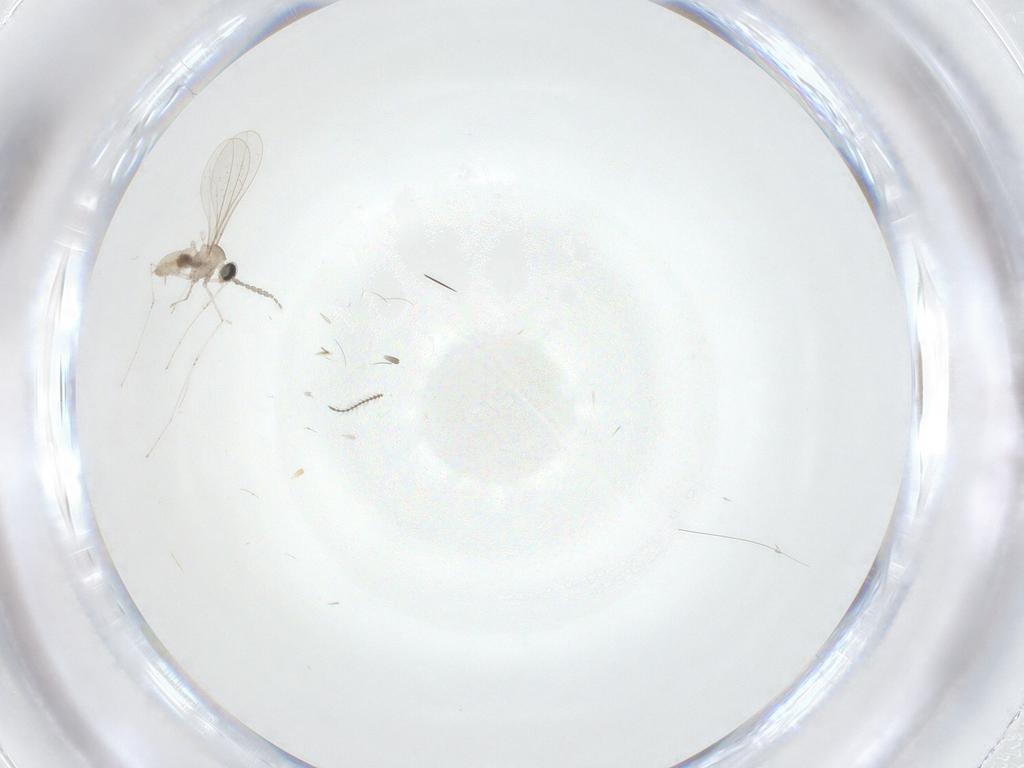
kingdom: Animalia
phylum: Arthropoda
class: Insecta
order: Diptera
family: Cecidomyiidae
